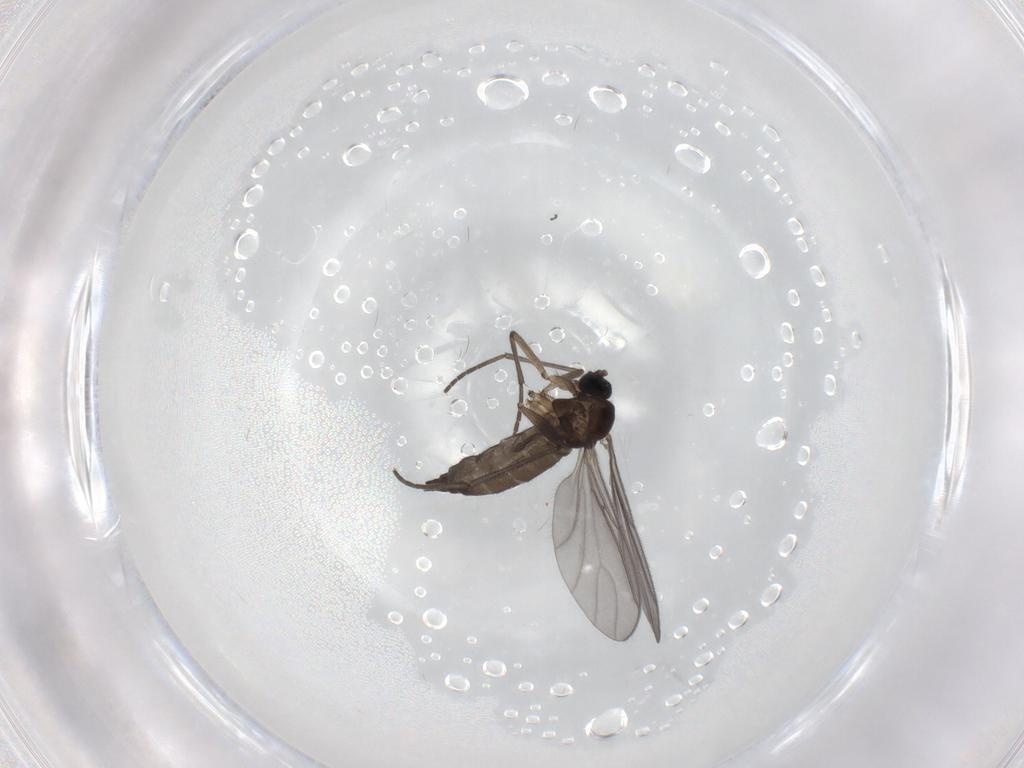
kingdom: Animalia
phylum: Arthropoda
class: Insecta
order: Diptera
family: Sciaridae
